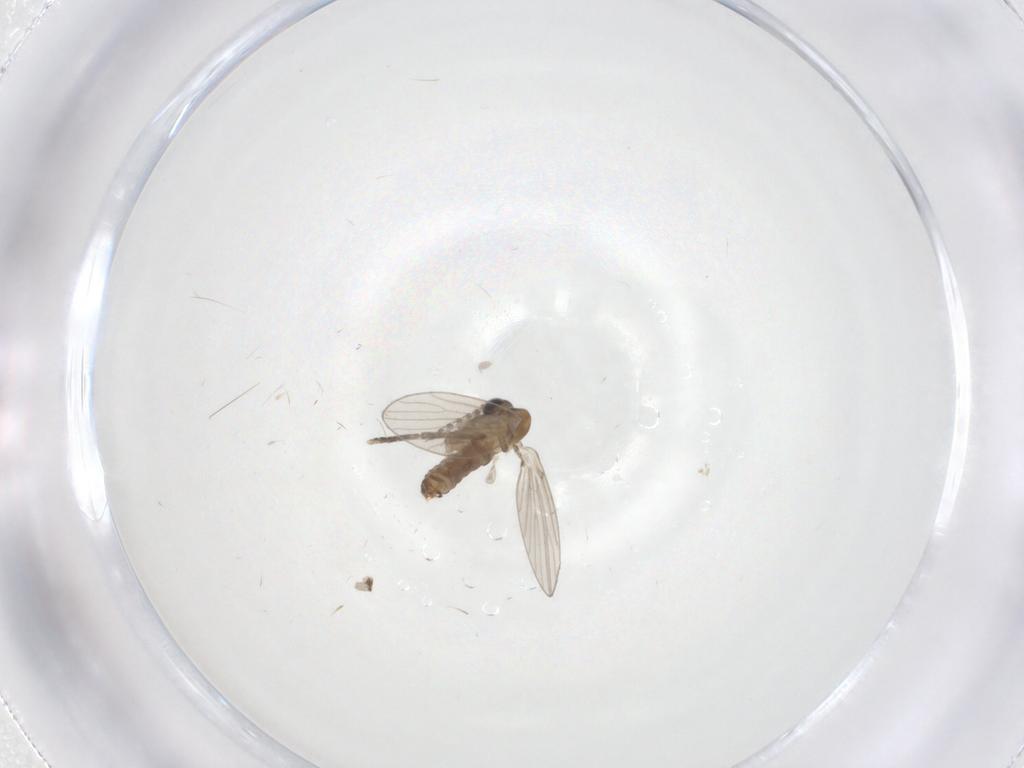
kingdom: Animalia
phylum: Arthropoda
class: Insecta
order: Diptera
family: Psychodidae
